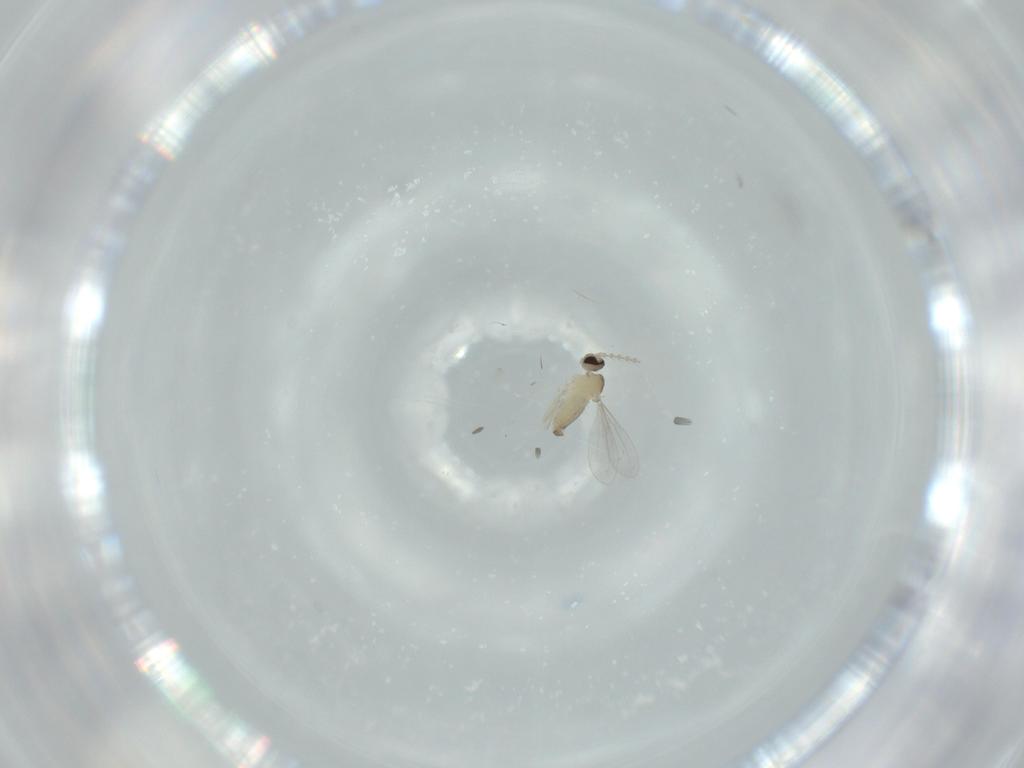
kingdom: Animalia
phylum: Arthropoda
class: Insecta
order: Diptera
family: Cecidomyiidae
